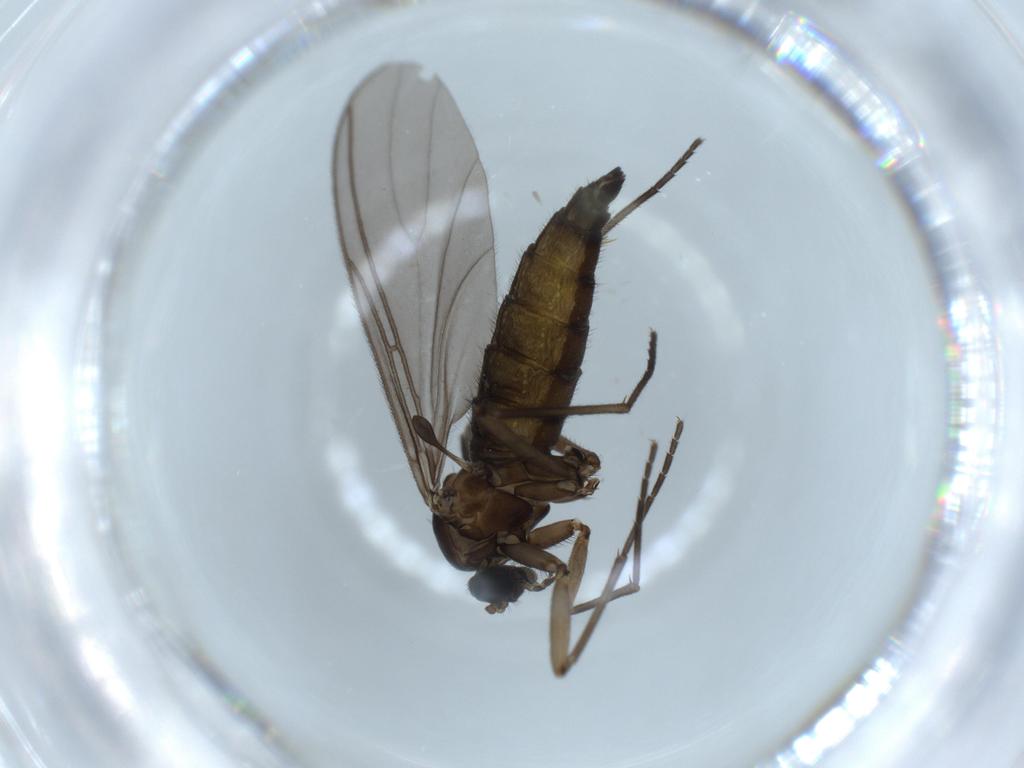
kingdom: Animalia
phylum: Arthropoda
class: Insecta
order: Diptera
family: Sciaridae
